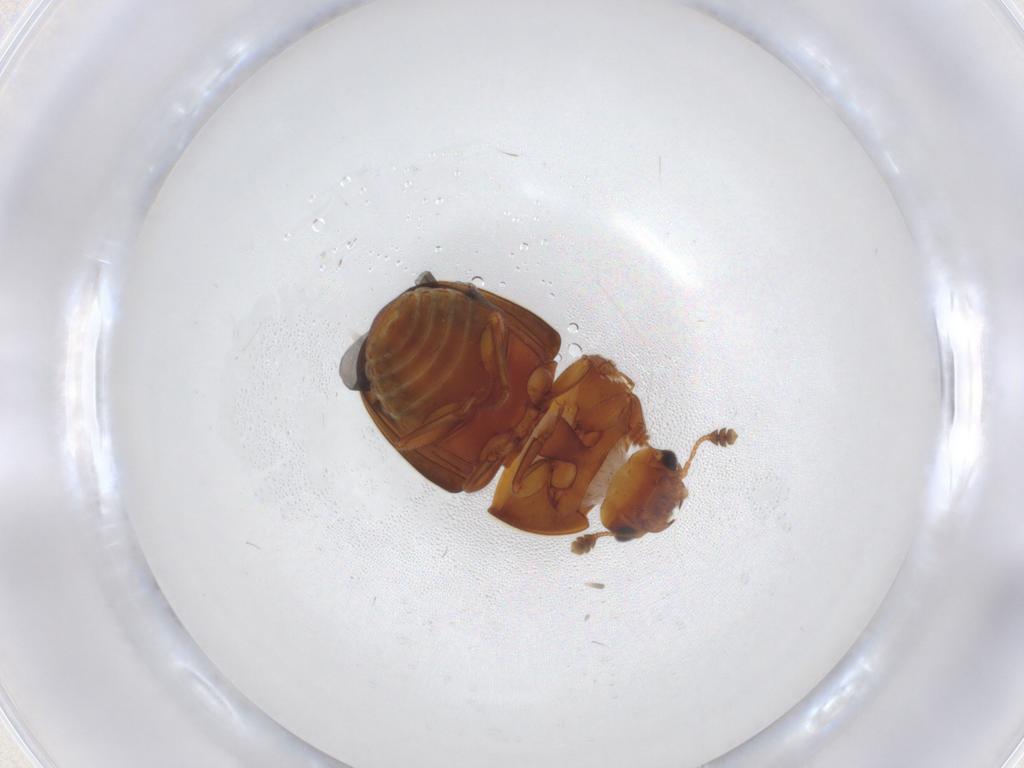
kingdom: Animalia
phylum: Arthropoda
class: Insecta
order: Coleoptera
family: Nitidulidae
